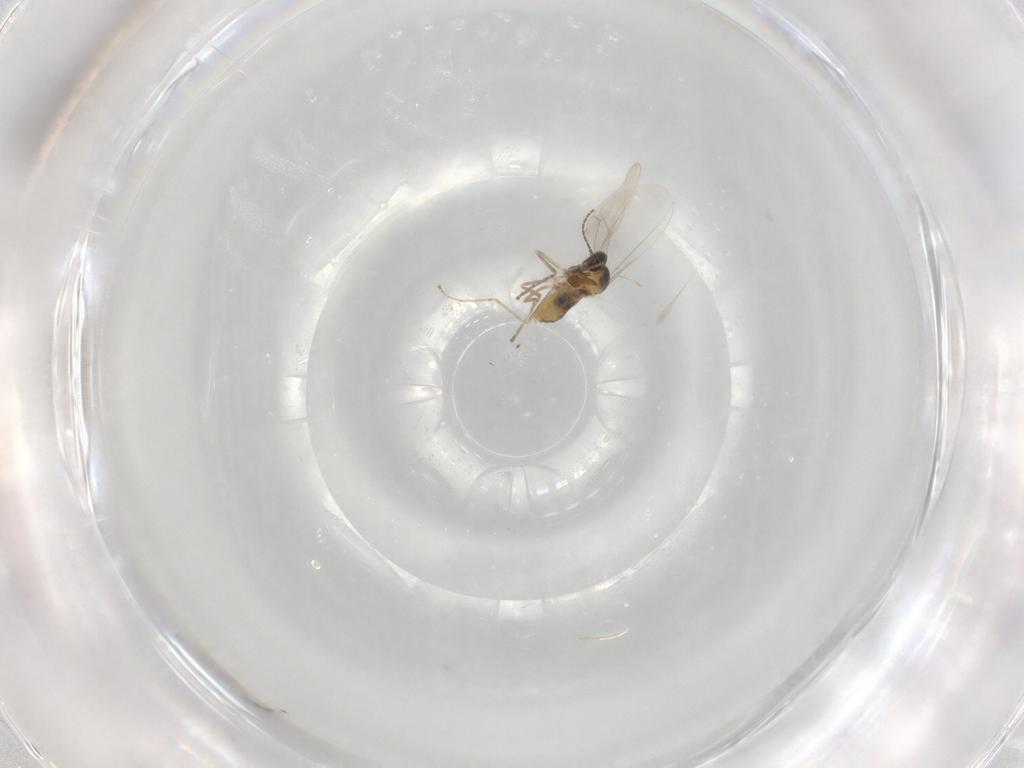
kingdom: Animalia
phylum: Arthropoda
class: Insecta
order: Diptera
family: Cecidomyiidae
